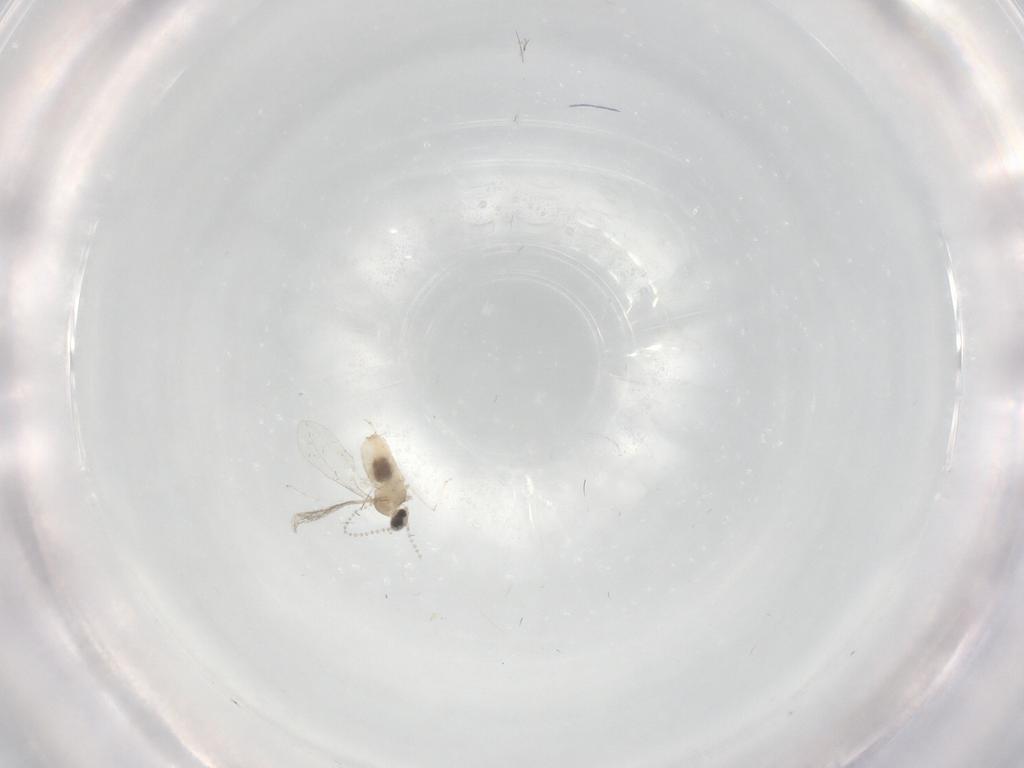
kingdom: Animalia
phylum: Arthropoda
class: Insecta
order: Diptera
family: Cecidomyiidae
